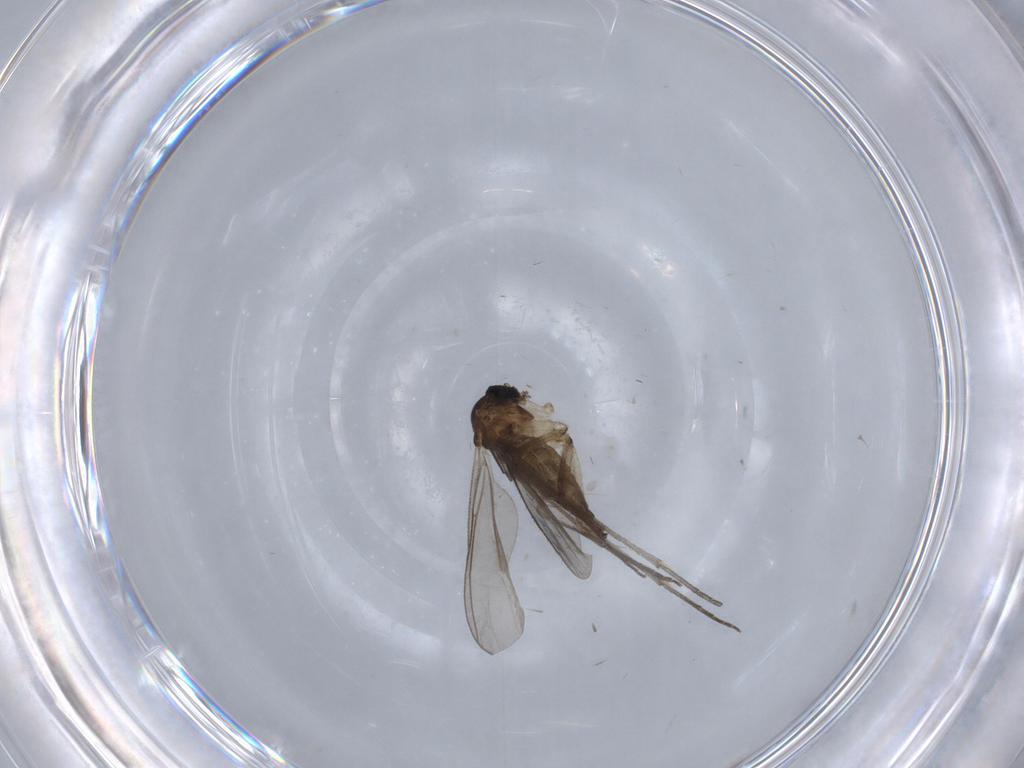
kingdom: Animalia
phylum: Arthropoda
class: Insecta
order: Diptera
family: Sciaridae
